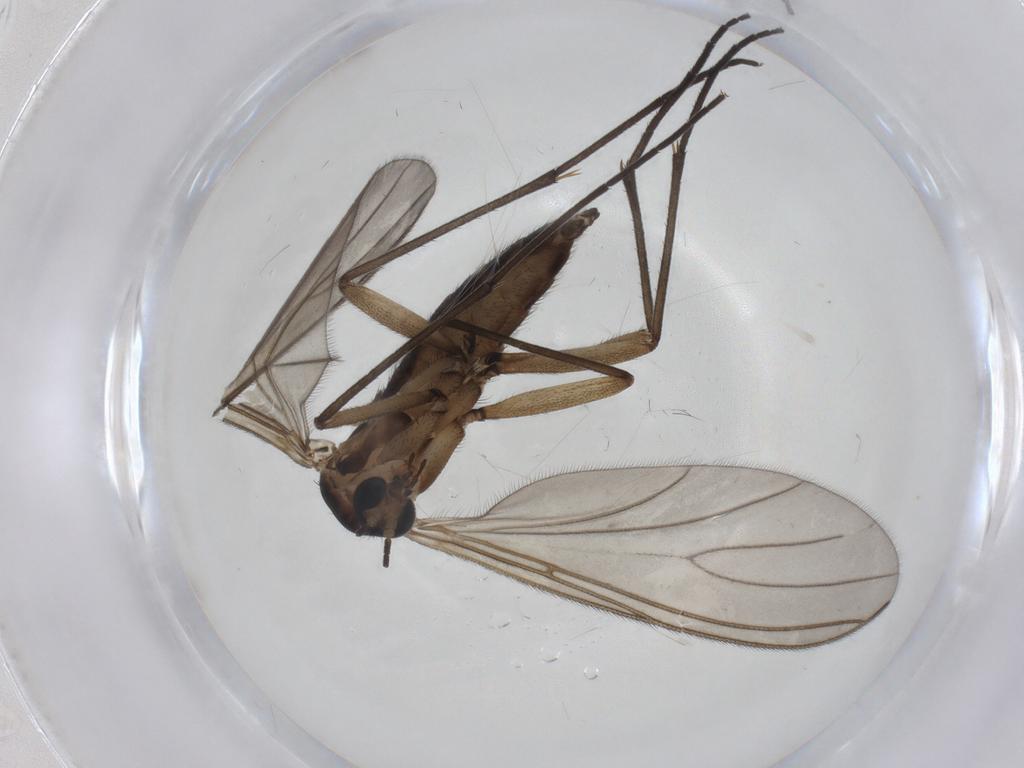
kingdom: Animalia
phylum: Arthropoda
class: Insecta
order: Diptera
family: Sciaridae
